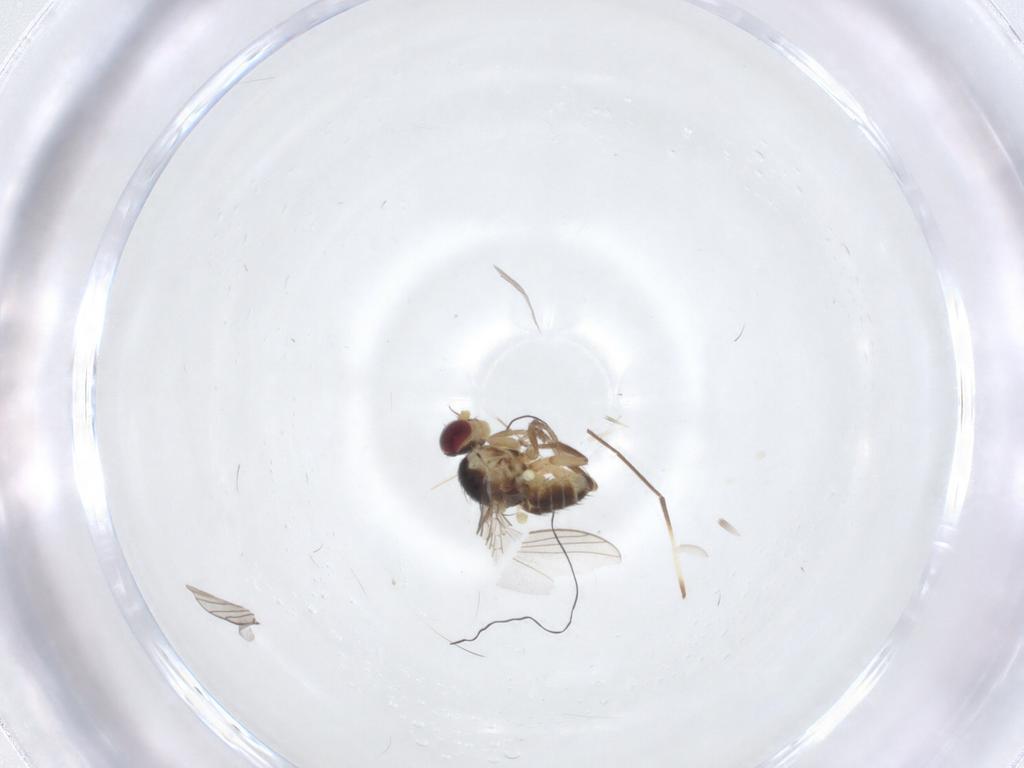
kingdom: Animalia
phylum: Arthropoda
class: Insecta
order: Diptera
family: Agromyzidae
